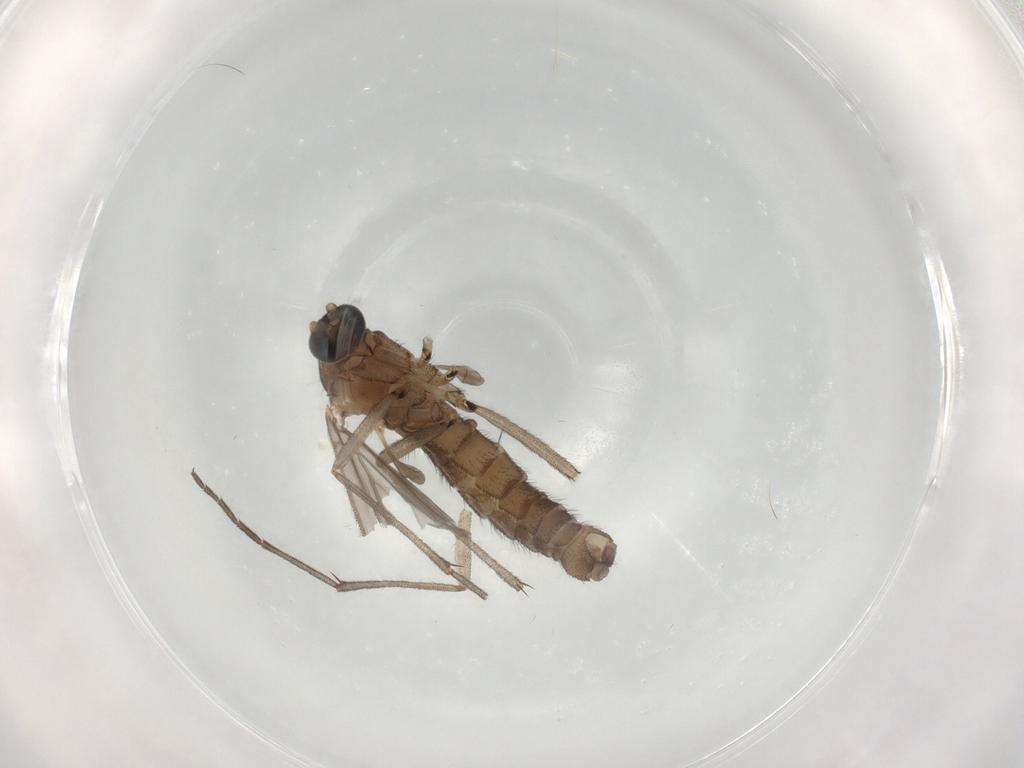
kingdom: Animalia
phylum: Arthropoda
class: Insecta
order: Diptera
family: Sciaridae
